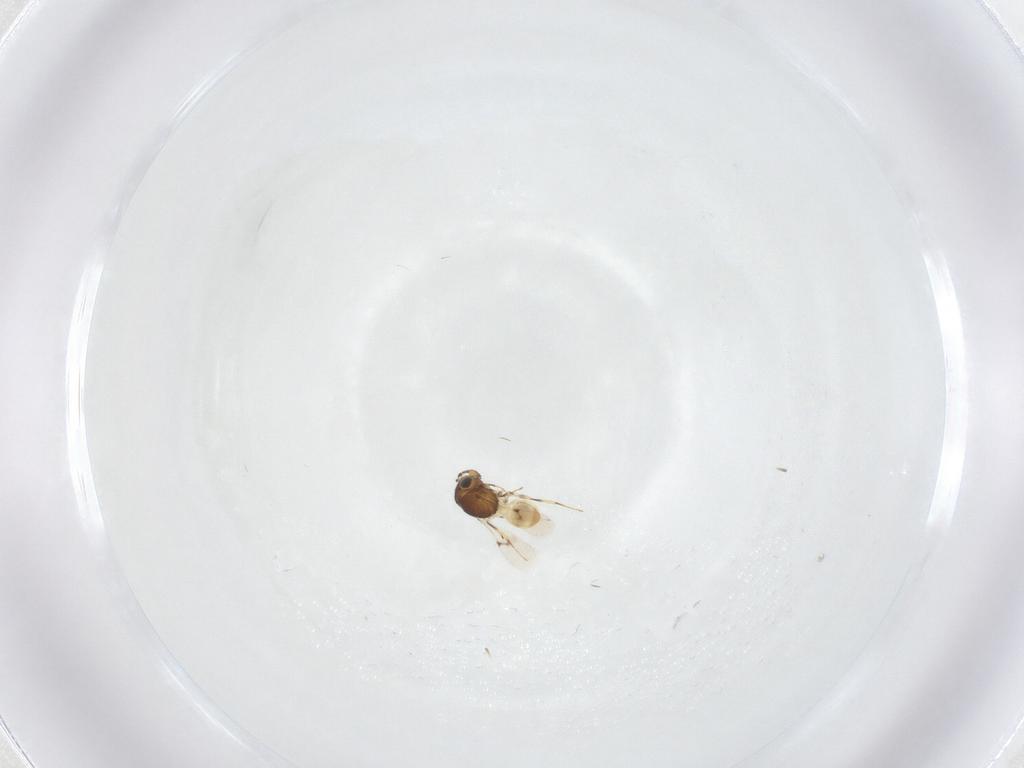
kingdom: Animalia
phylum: Arthropoda
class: Insecta
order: Hymenoptera
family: Scelionidae
